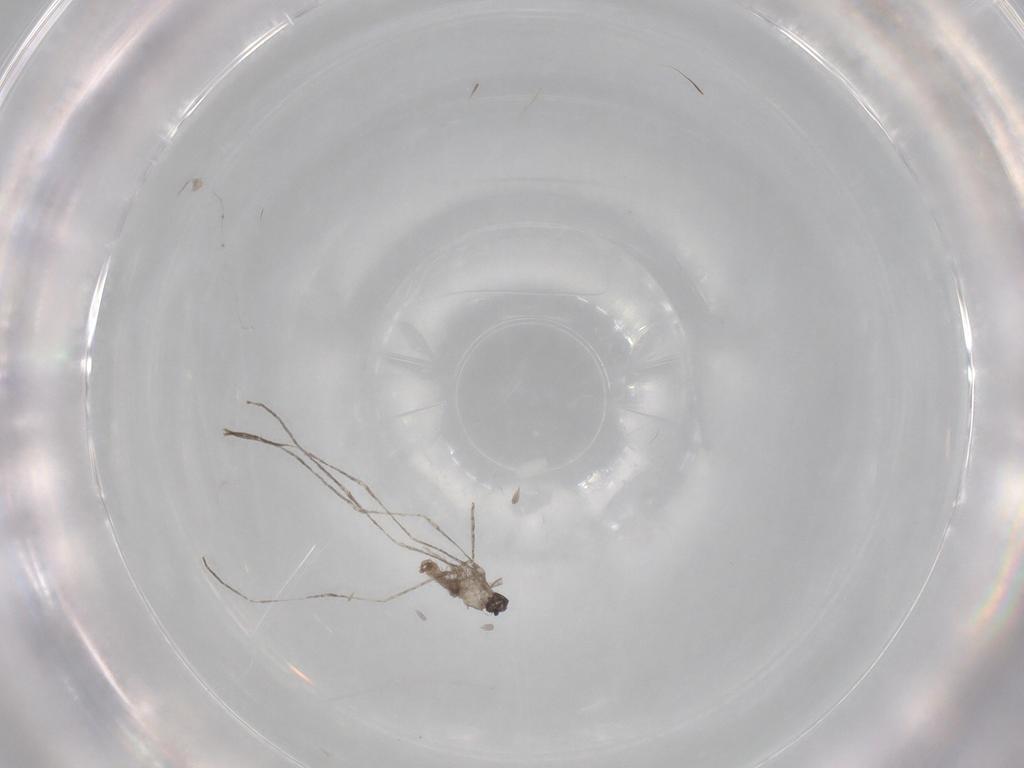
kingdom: Animalia
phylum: Arthropoda
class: Insecta
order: Diptera
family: Cecidomyiidae
